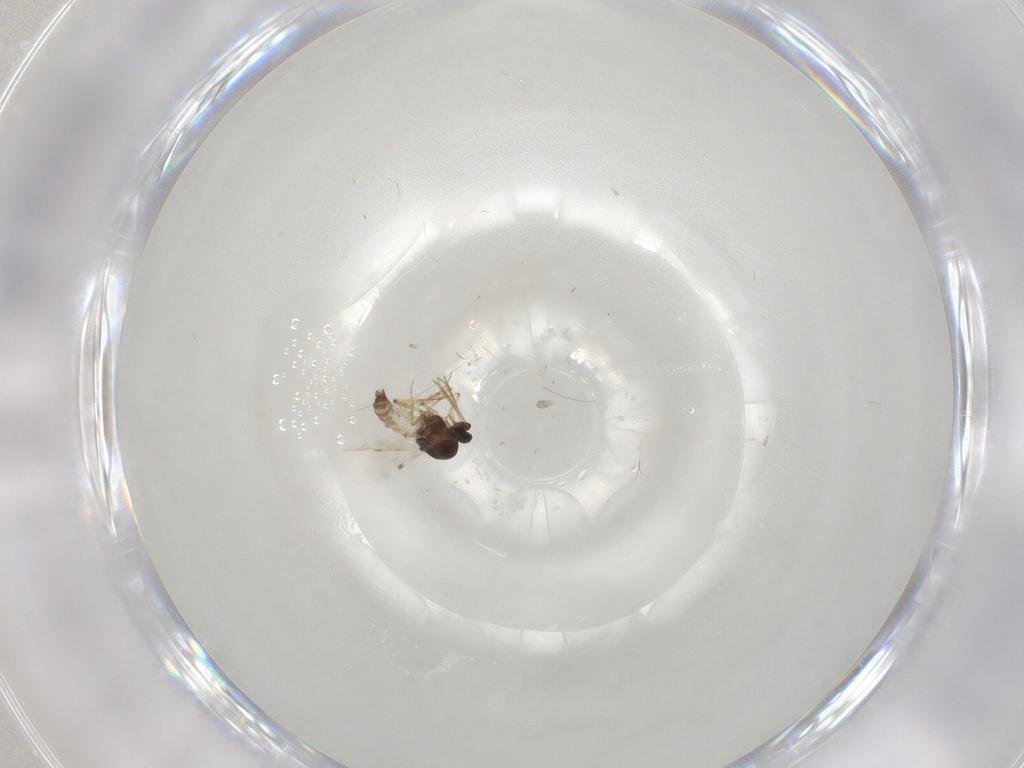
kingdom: Animalia
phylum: Arthropoda
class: Insecta
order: Diptera
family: Chironomidae
